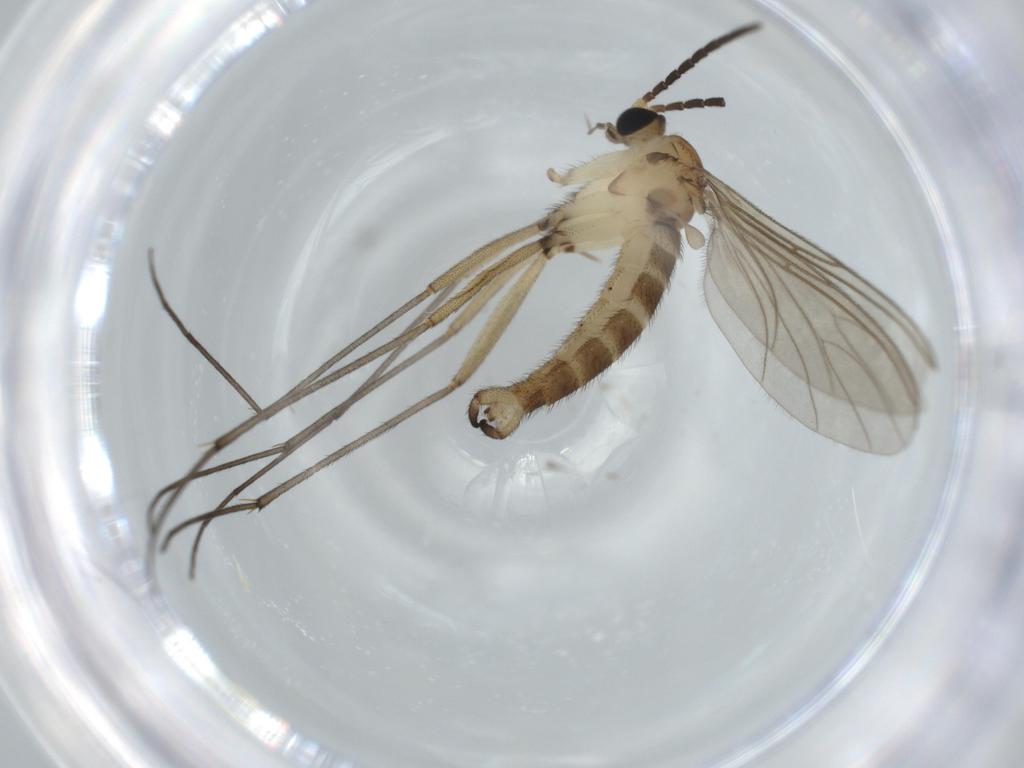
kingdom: Animalia
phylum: Arthropoda
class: Insecta
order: Diptera
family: Sciaridae
